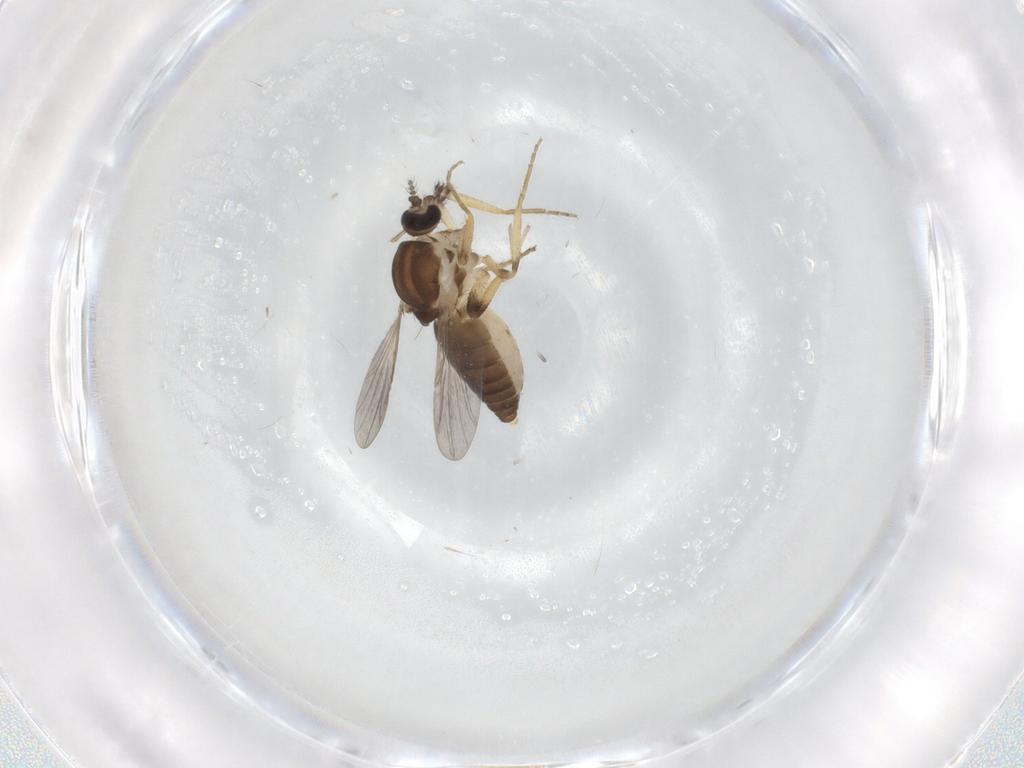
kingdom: Animalia
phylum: Arthropoda
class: Insecta
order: Diptera
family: Ceratopogonidae
